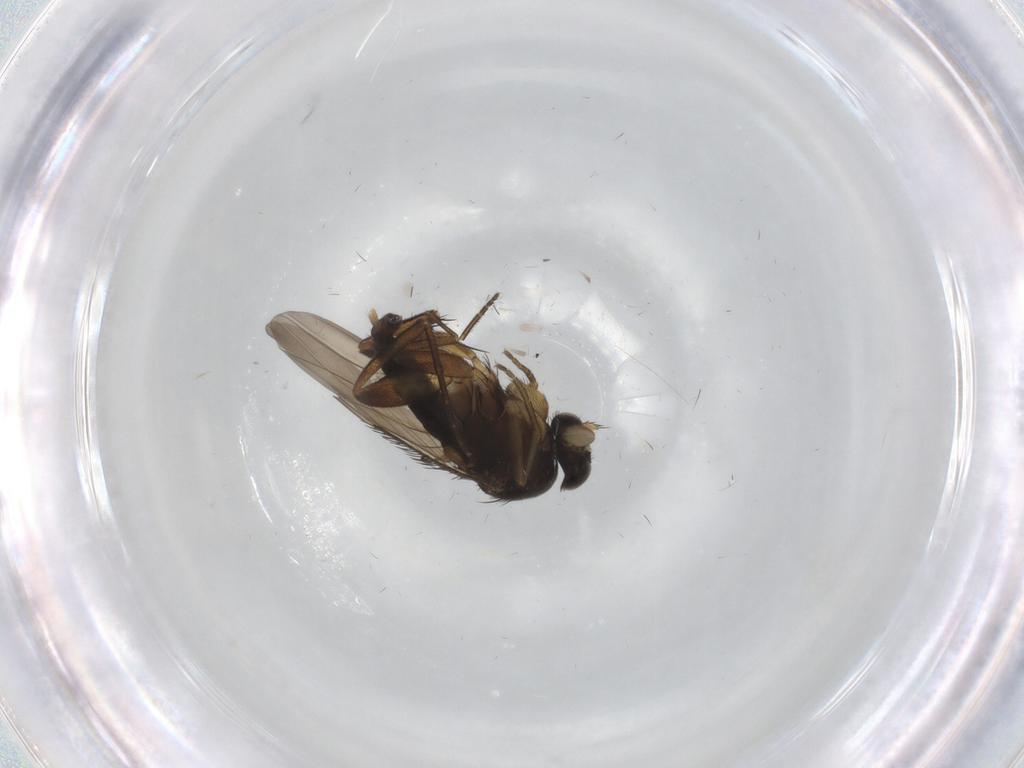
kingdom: Animalia
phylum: Arthropoda
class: Insecta
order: Diptera
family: Phoridae
